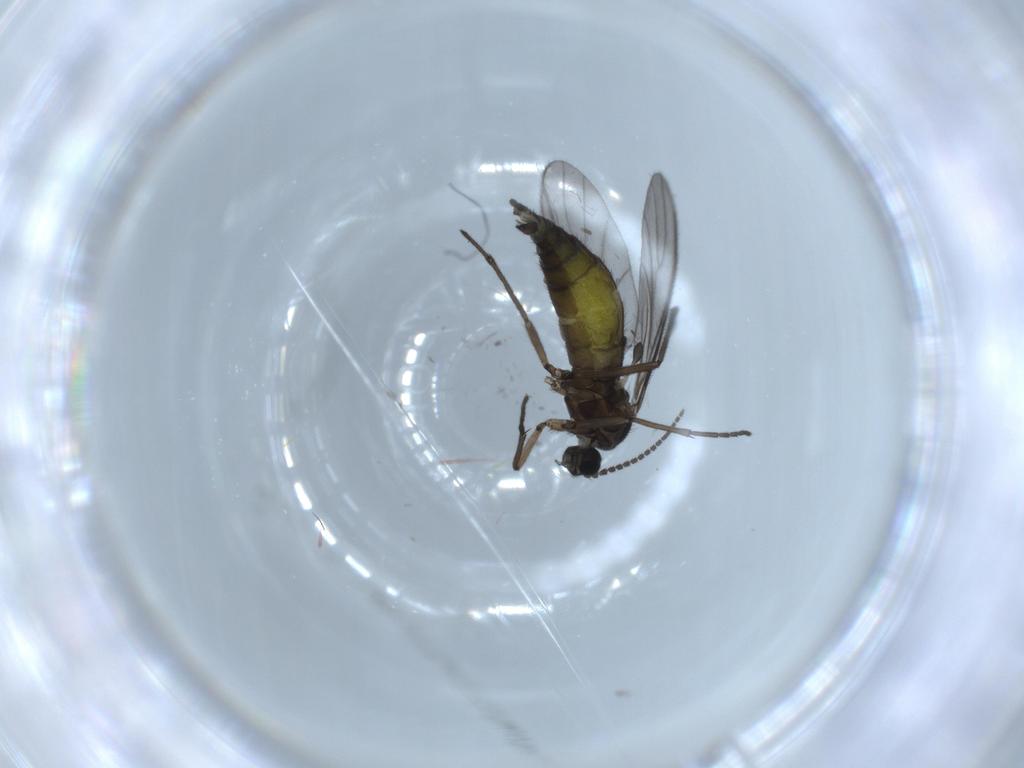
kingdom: Animalia
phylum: Arthropoda
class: Insecta
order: Diptera
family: Sciaridae
